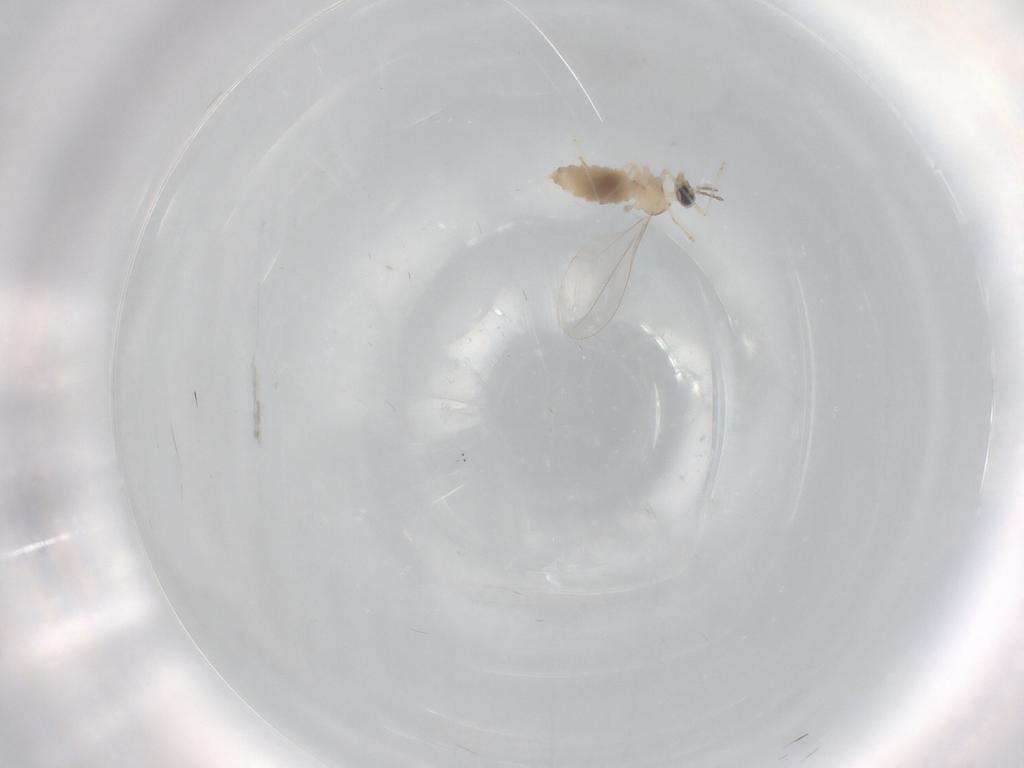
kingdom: Animalia
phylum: Arthropoda
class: Insecta
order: Diptera
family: Cecidomyiidae
